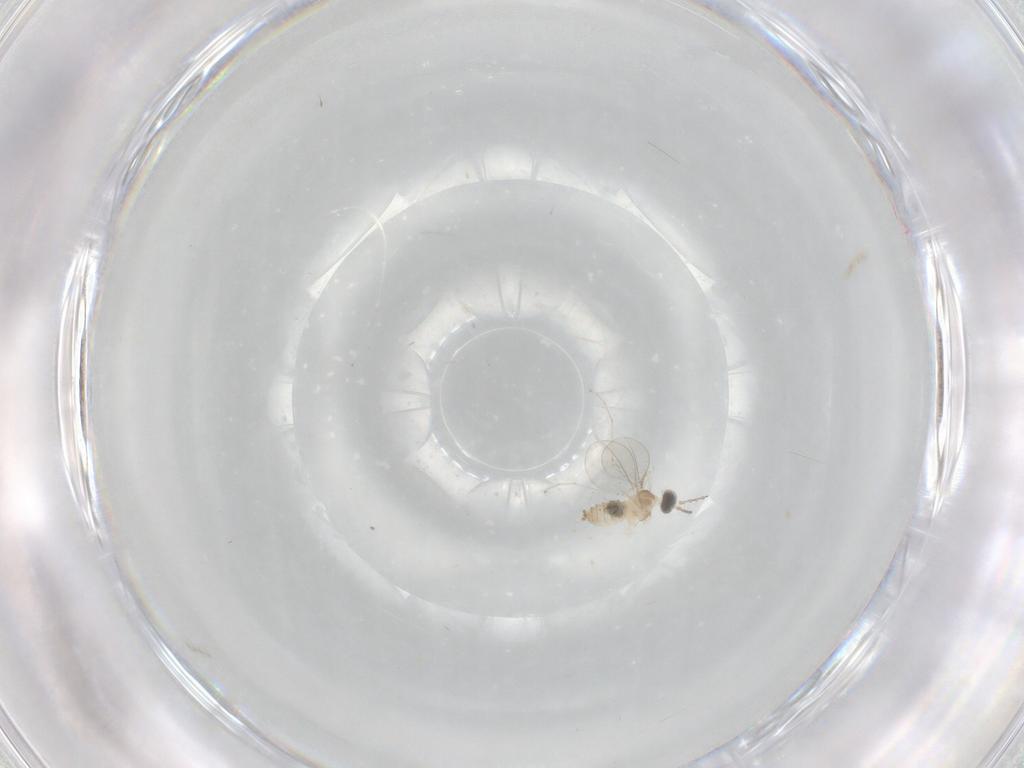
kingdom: Animalia
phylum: Arthropoda
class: Insecta
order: Diptera
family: Cecidomyiidae
